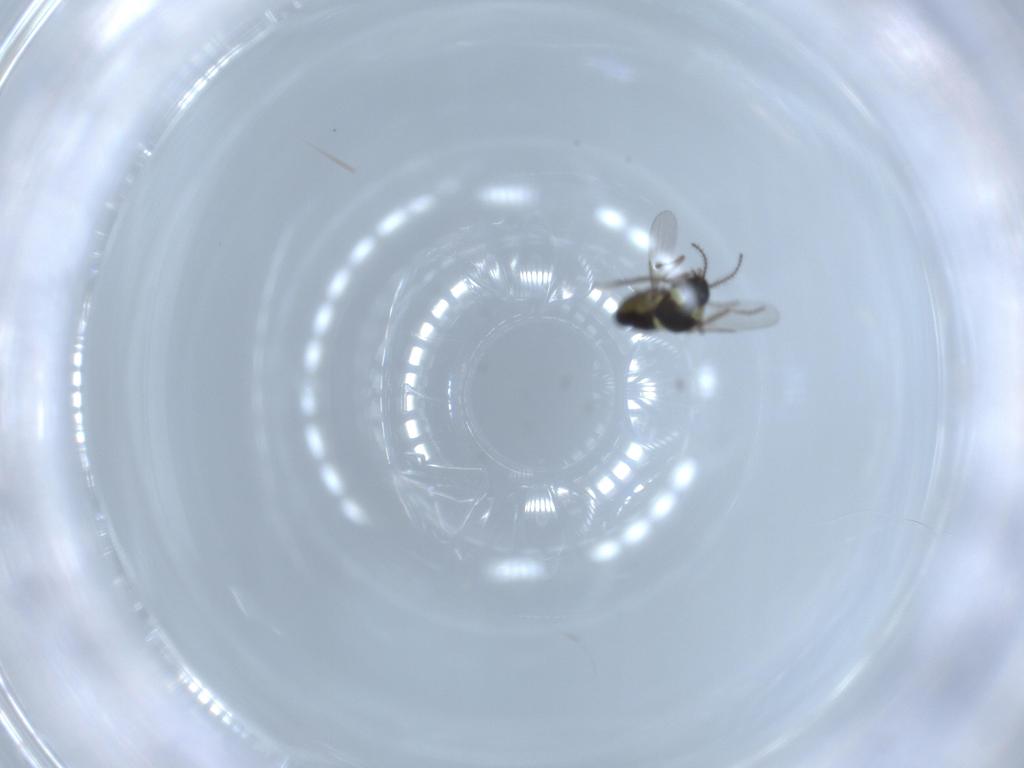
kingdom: Animalia
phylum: Arthropoda
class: Insecta
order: Diptera
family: Ceratopogonidae
